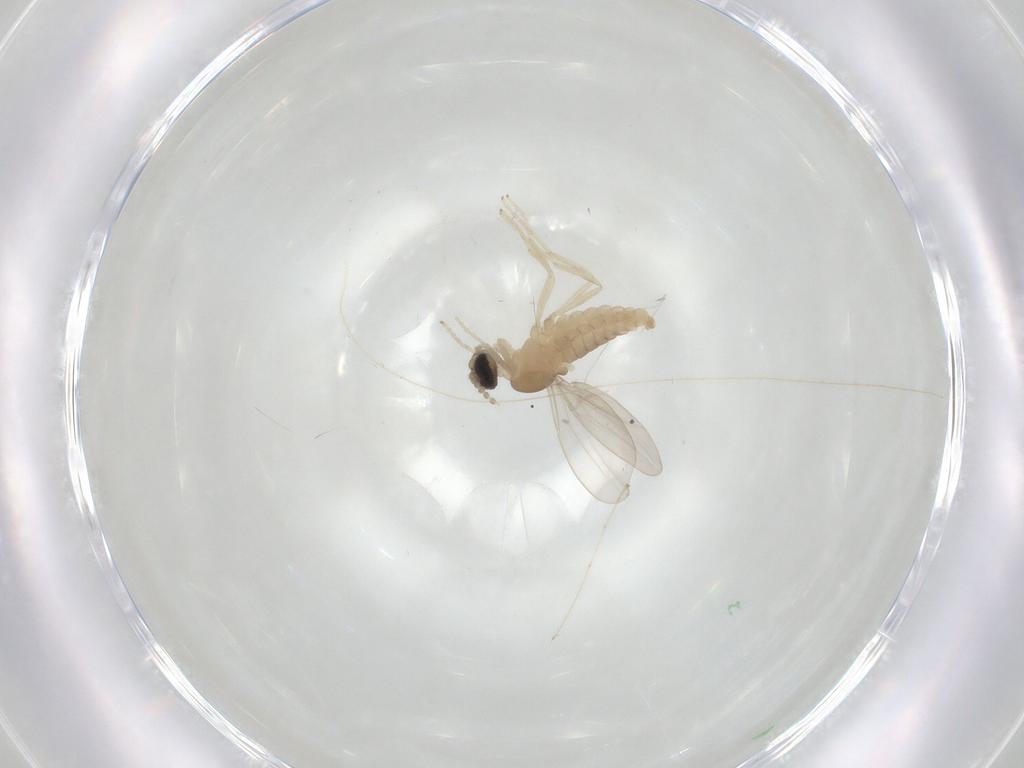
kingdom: Animalia
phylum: Arthropoda
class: Insecta
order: Diptera
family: Cecidomyiidae
